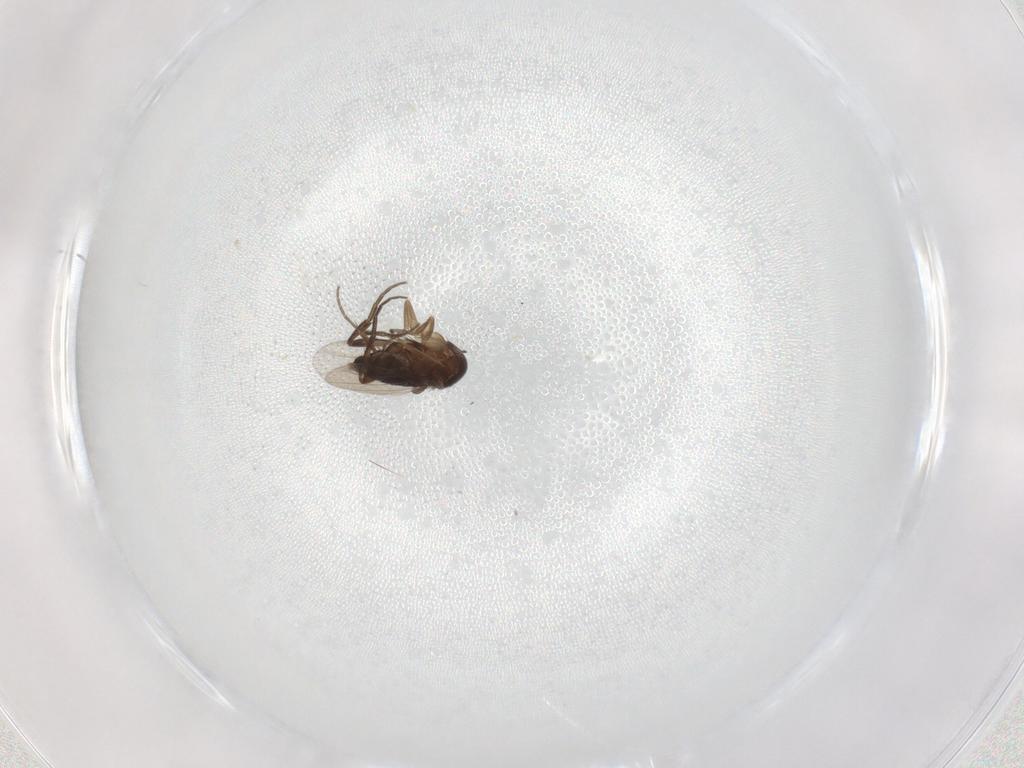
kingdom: Animalia
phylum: Arthropoda
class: Insecta
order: Diptera
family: Phoridae
